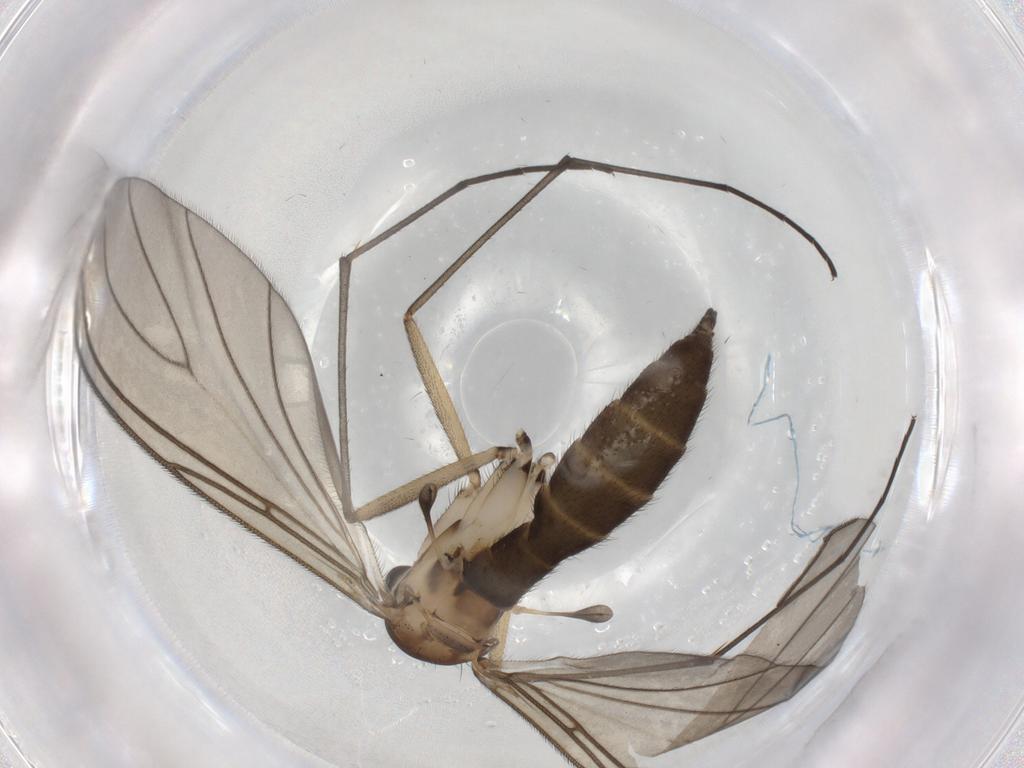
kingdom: Animalia
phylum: Arthropoda
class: Insecta
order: Diptera
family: Sciaridae
